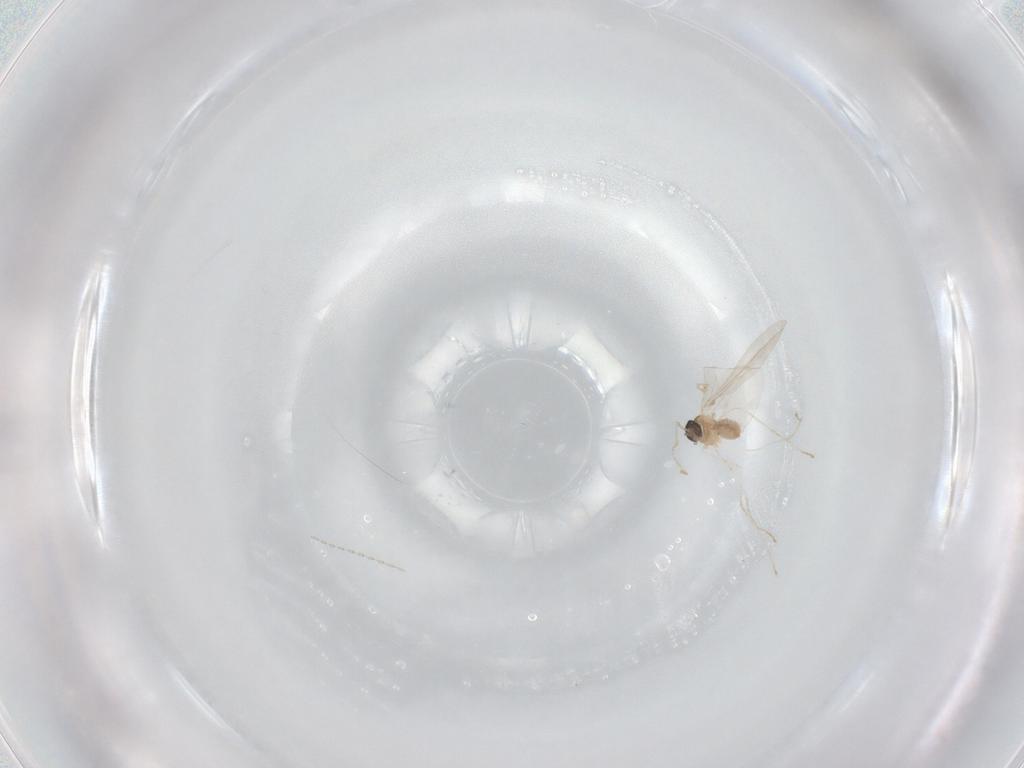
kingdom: Animalia
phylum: Arthropoda
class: Insecta
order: Diptera
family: Cecidomyiidae
